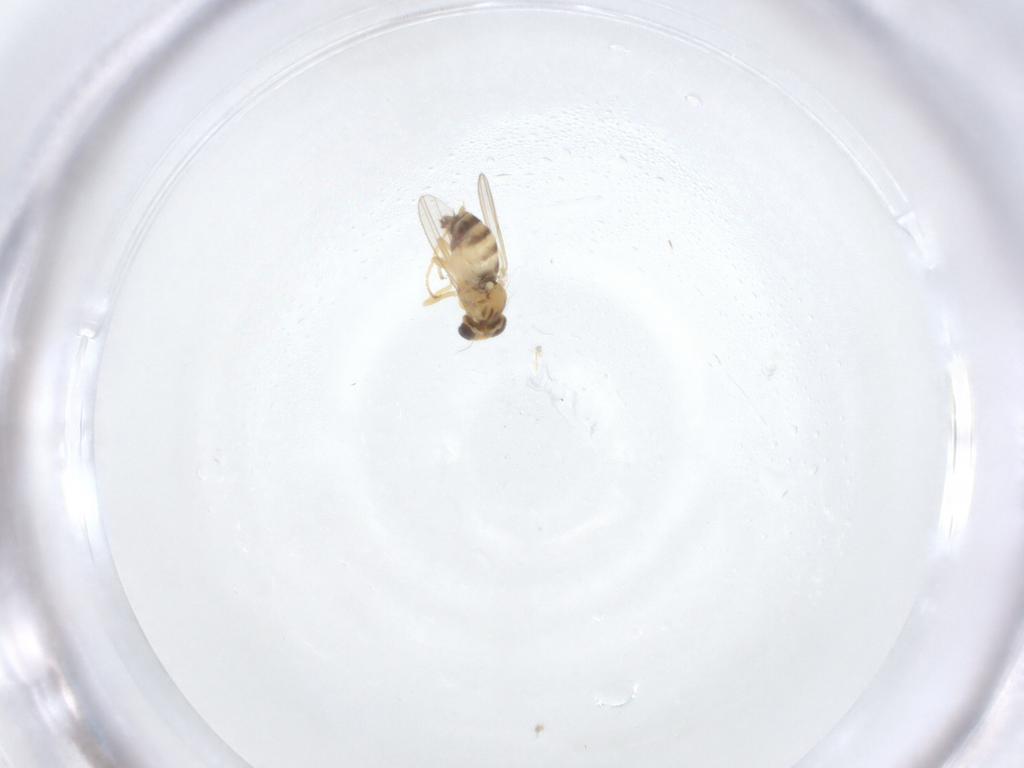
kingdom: Animalia
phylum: Arthropoda
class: Insecta
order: Diptera
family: Chyromyidae
